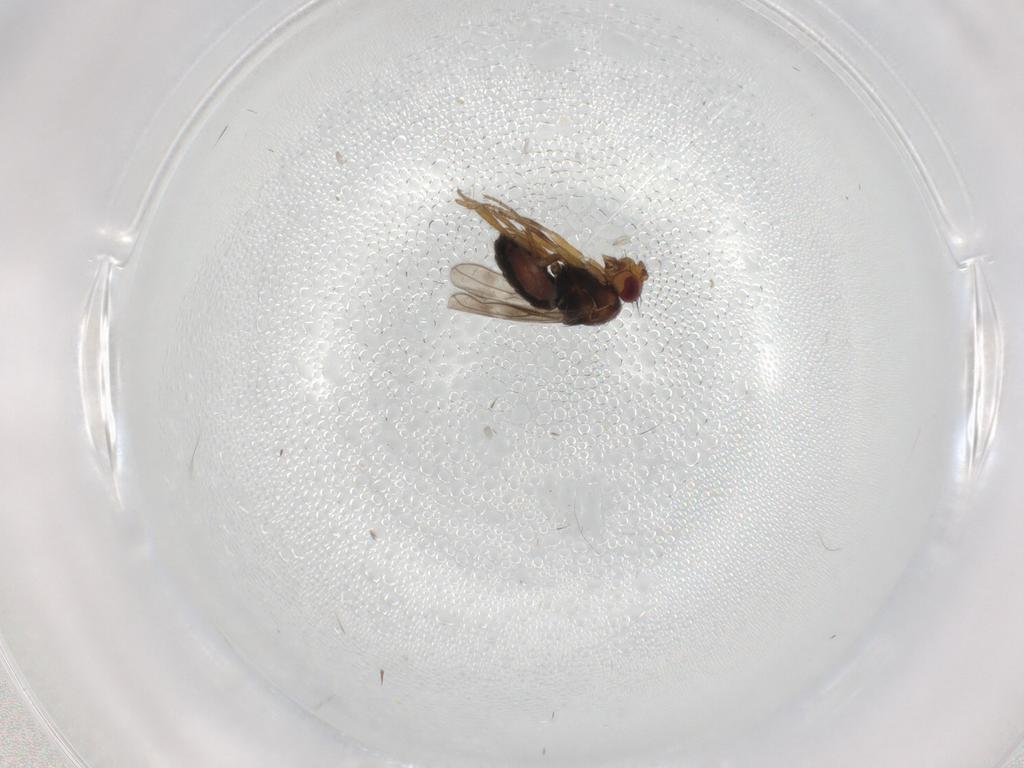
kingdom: Animalia
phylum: Arthropoda
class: Insecta
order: Diptera
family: Sphaeroceridae
